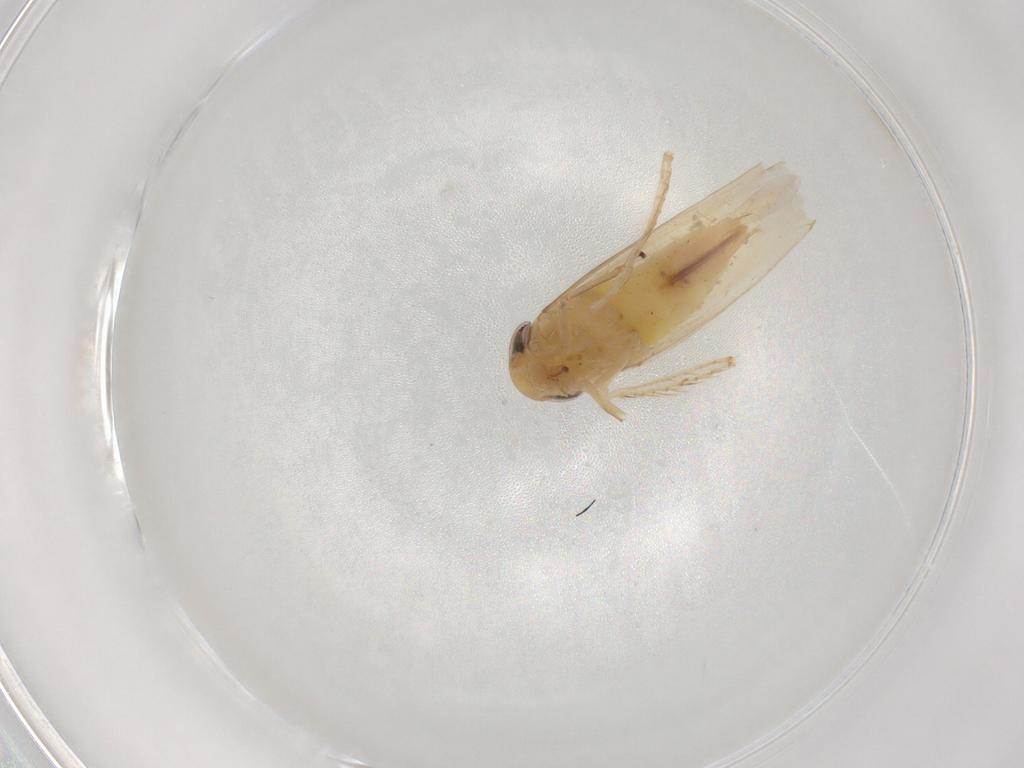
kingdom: Animalia
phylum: Arthropoda
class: Insecta
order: Hemiptera
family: Cicadellidae
